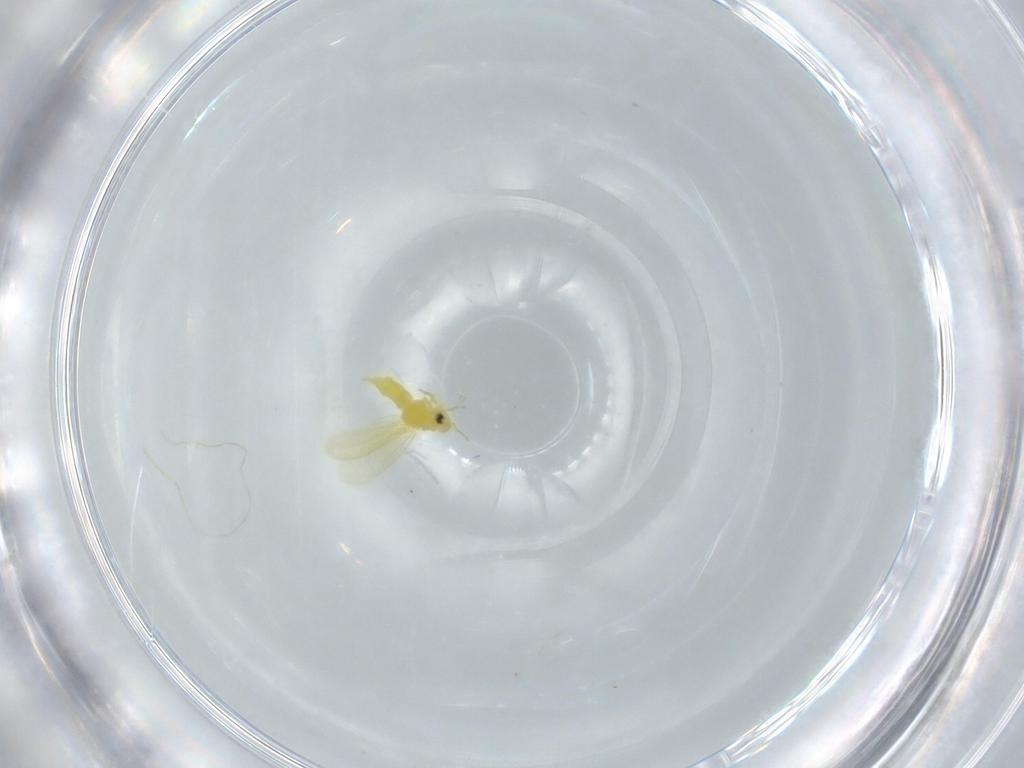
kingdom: Animalia
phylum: Arthropoda
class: Insecta
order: Hemiptera
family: Aleyrodidae
